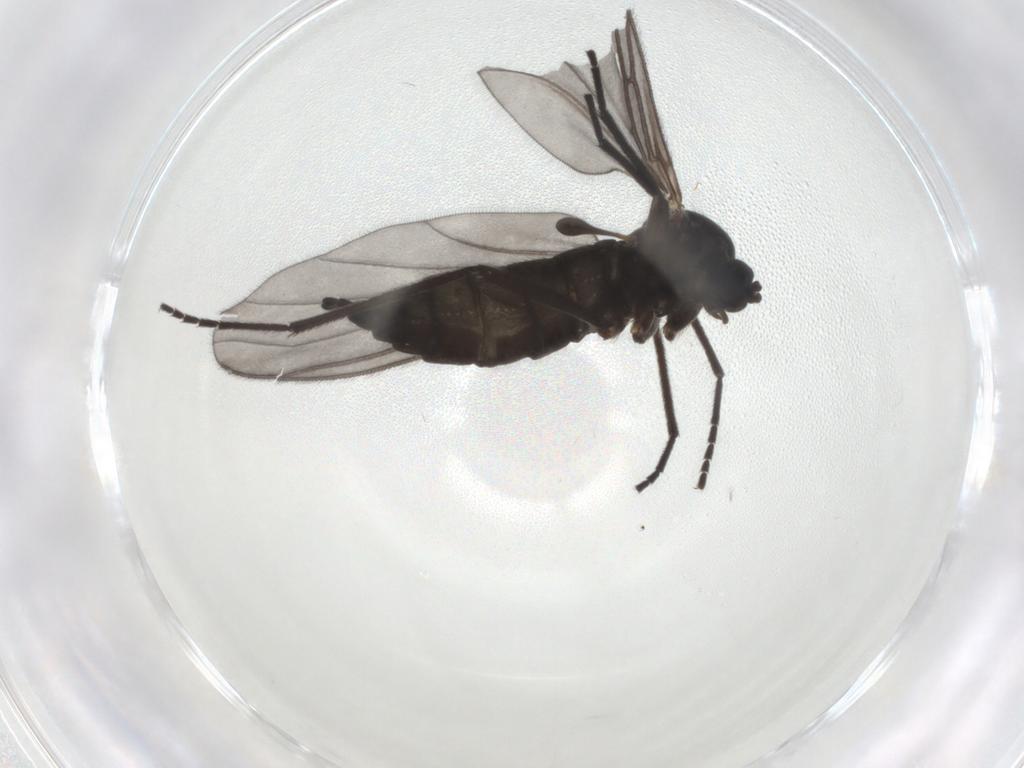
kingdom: Animalia
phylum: Arthropoda
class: Insecta
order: Diptera
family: Sciaridae
